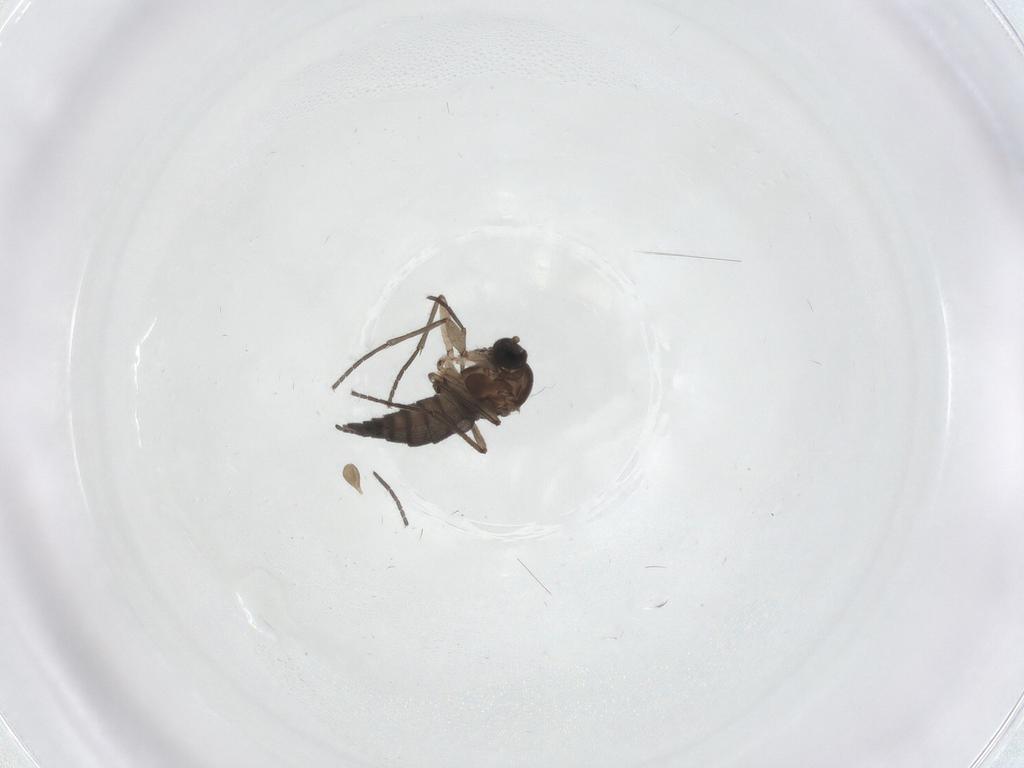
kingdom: Animalia
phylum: Arthropoda
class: Insecta
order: Diptera
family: Sciaridae
